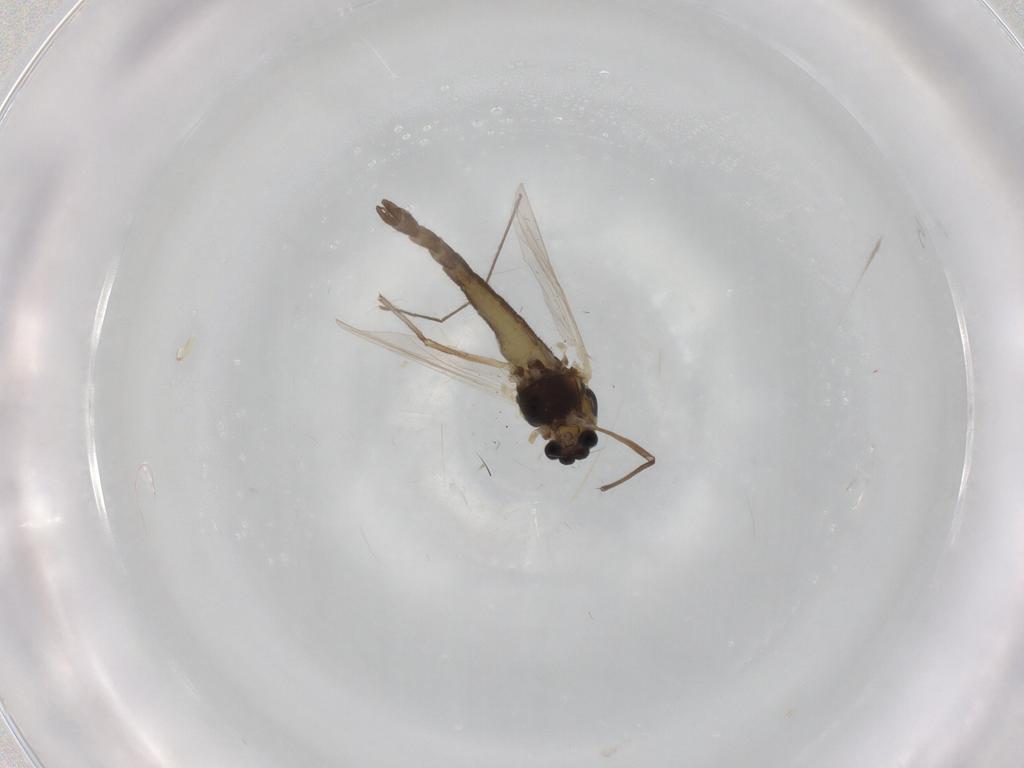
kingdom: Animalia
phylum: Arthropoda
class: Insecta
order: Diptera
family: Chironomidae
